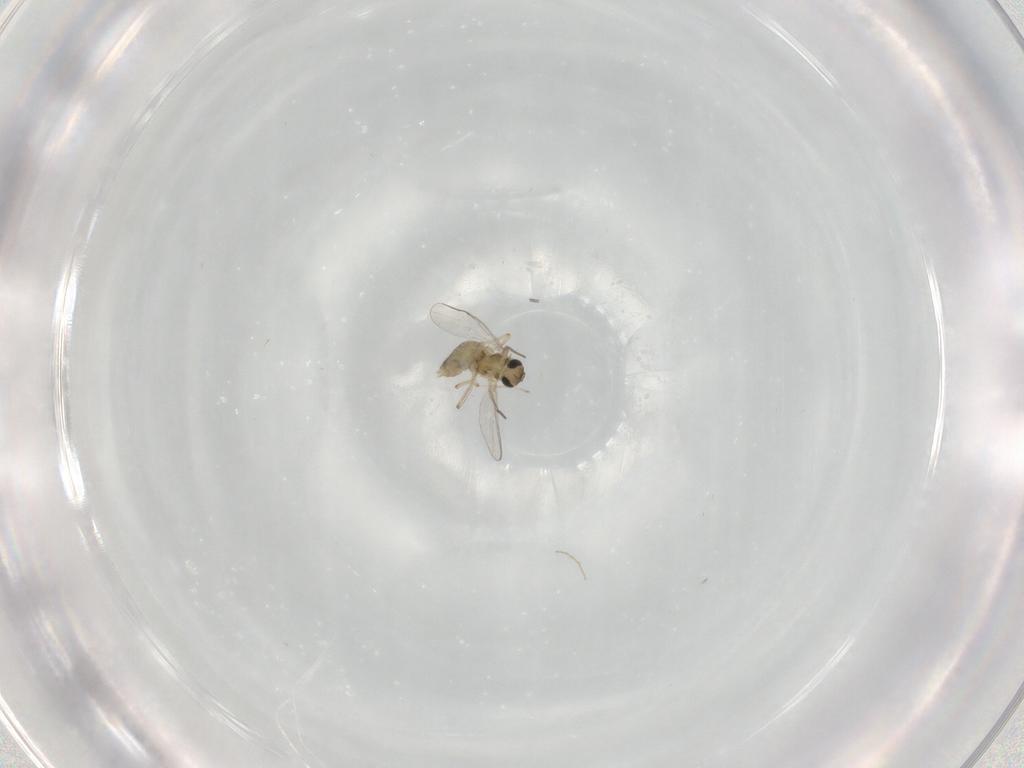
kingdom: Animalia
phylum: Arthropoda
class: Insecta
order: Diptera
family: Chironomidae
